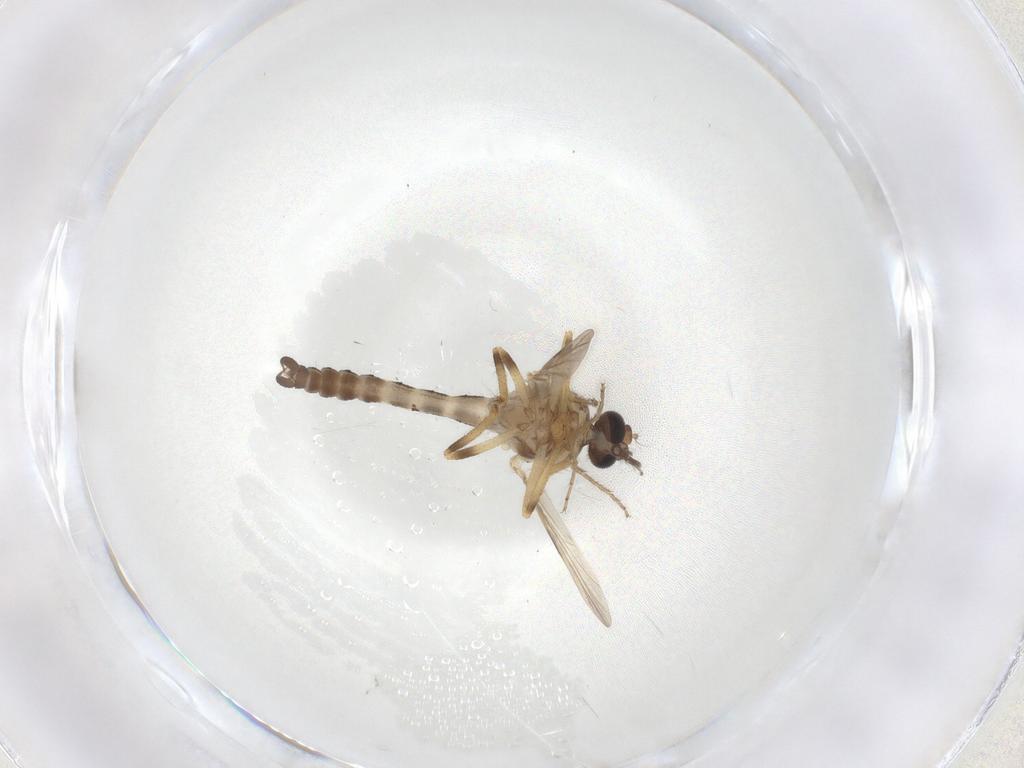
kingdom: Animalia
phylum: Arthropoda
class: Insecta
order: Diptera
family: Ceratopogonidae
